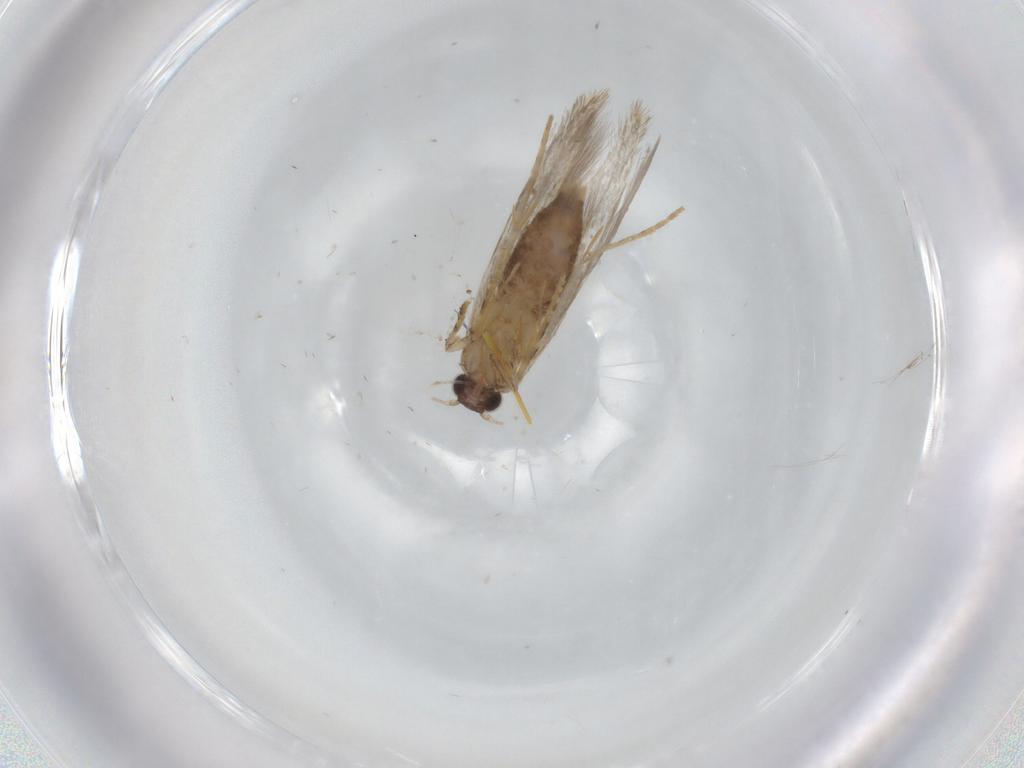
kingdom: Animalia
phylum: Arthropoda
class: Insecta
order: Lepidoptera
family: Tineidae
